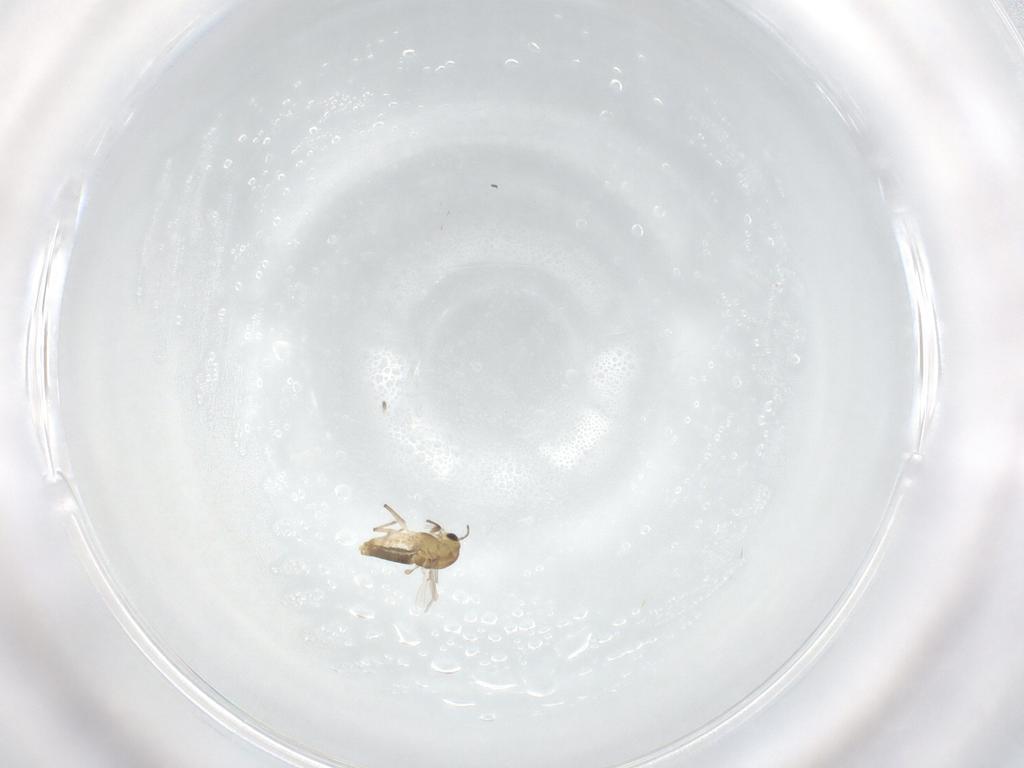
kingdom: Animalia
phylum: Arthropoda
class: Insecta
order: Diptera
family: Chironomidae
